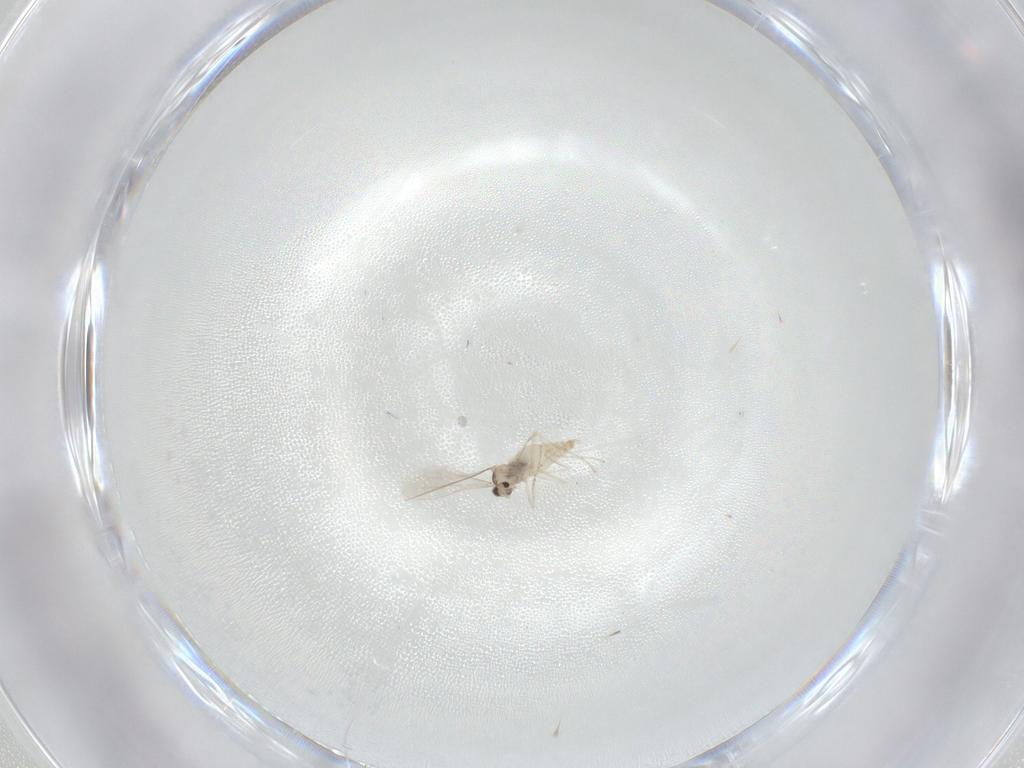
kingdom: Animalia
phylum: Arthropoda
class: Insecta
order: Diptera
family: Cecidomyiidae
